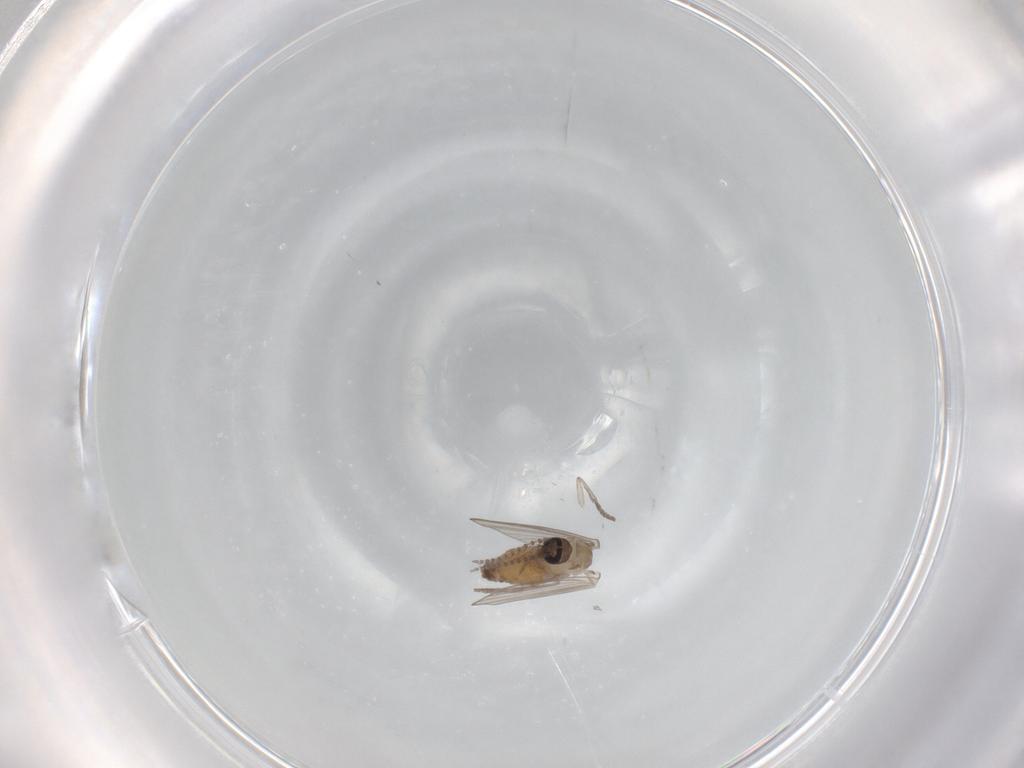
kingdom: Animalia
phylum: Arthropoda
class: Insecta
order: Diptera
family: Psychodidae
